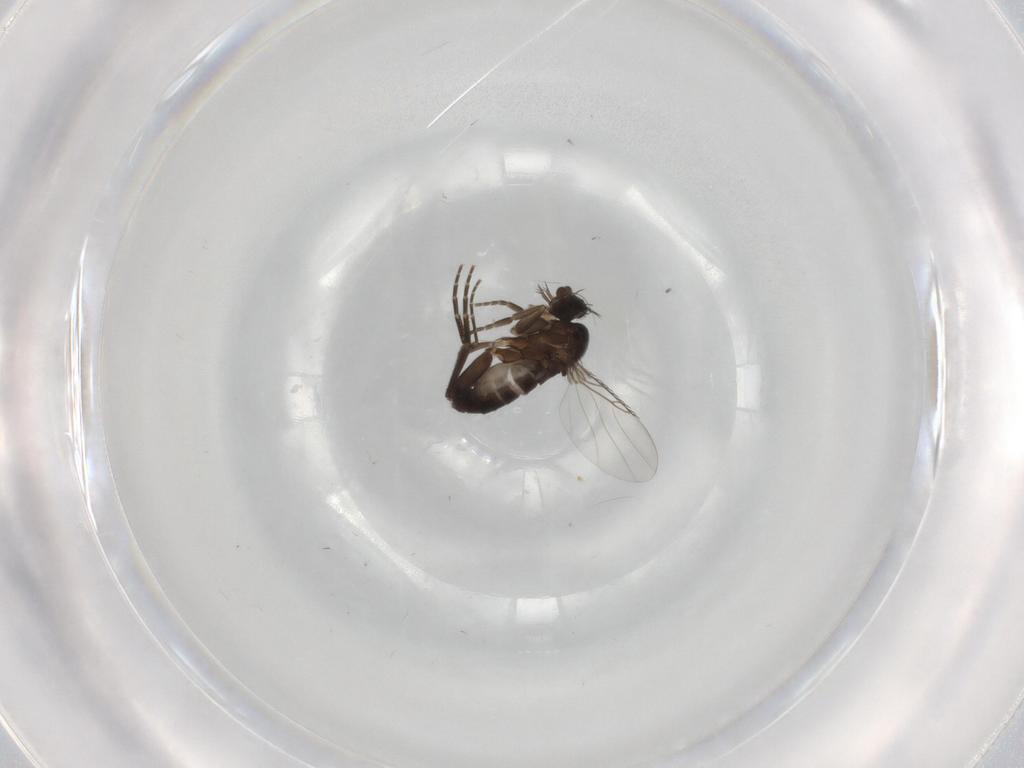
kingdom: Animalia
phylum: Arthropoda
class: Insecta
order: Diptera
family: Phoridae
